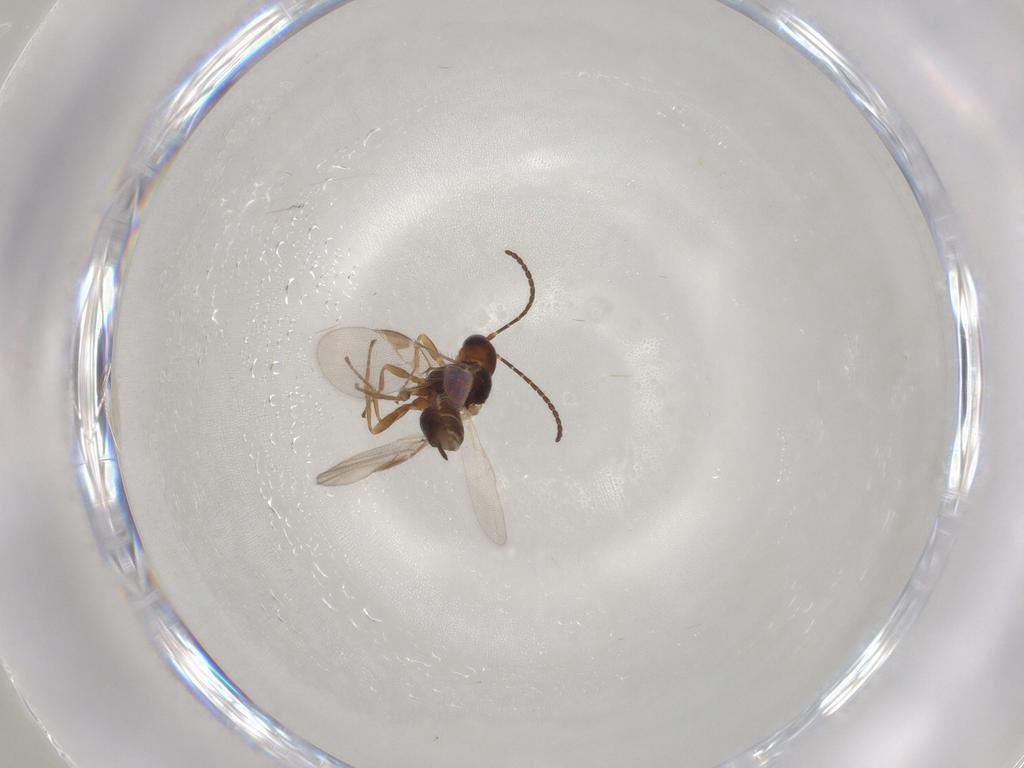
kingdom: Animalia
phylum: Arthropoda
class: Insecta
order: Hymenoptera
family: Braconidae
